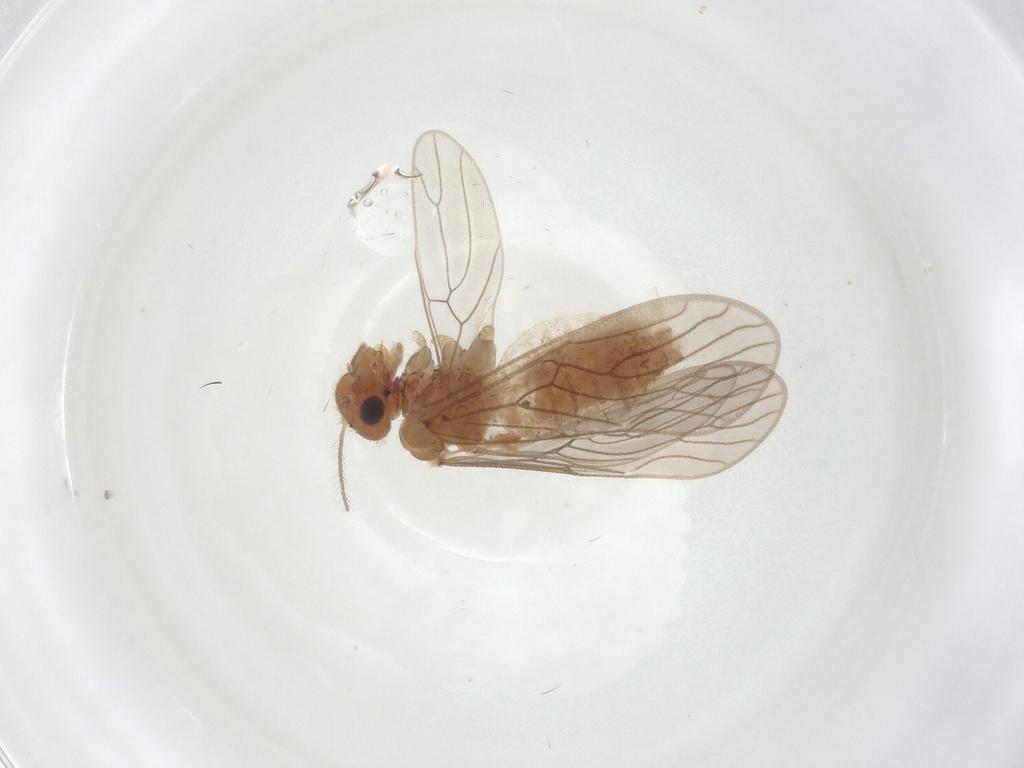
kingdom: Animalia
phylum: Arthropoda
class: Insecta
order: Psocodea
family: Epipsocidae
